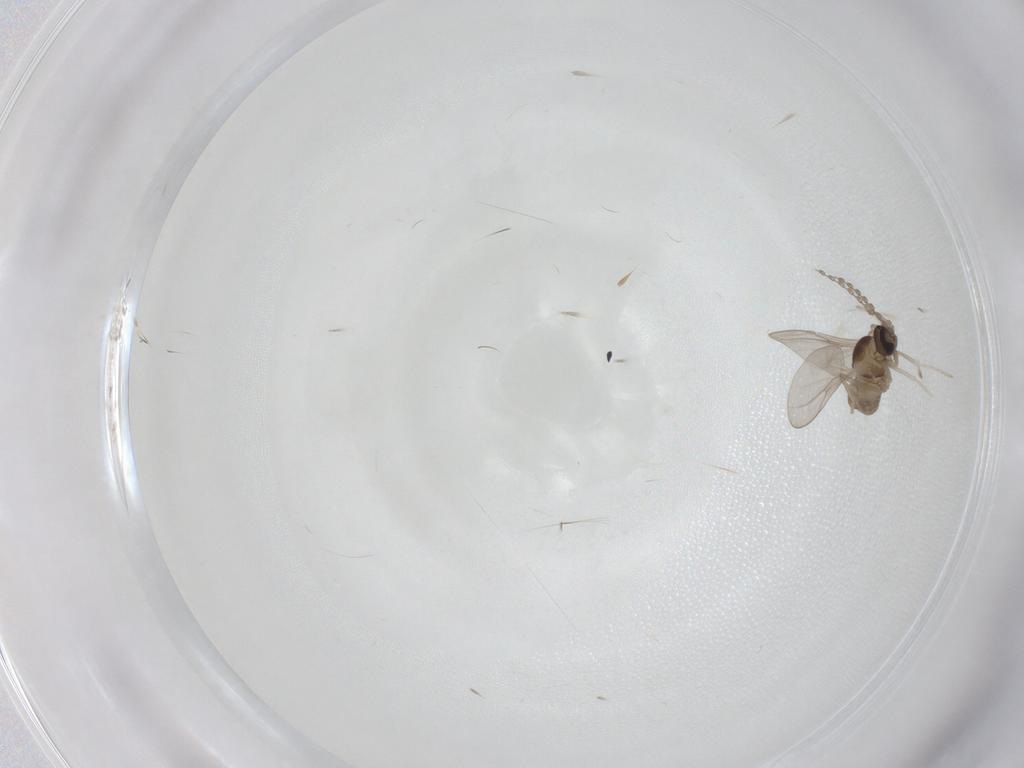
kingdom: Animalia
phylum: Arthropoda
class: Insecta
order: Diptera
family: Cecidomyiidae
